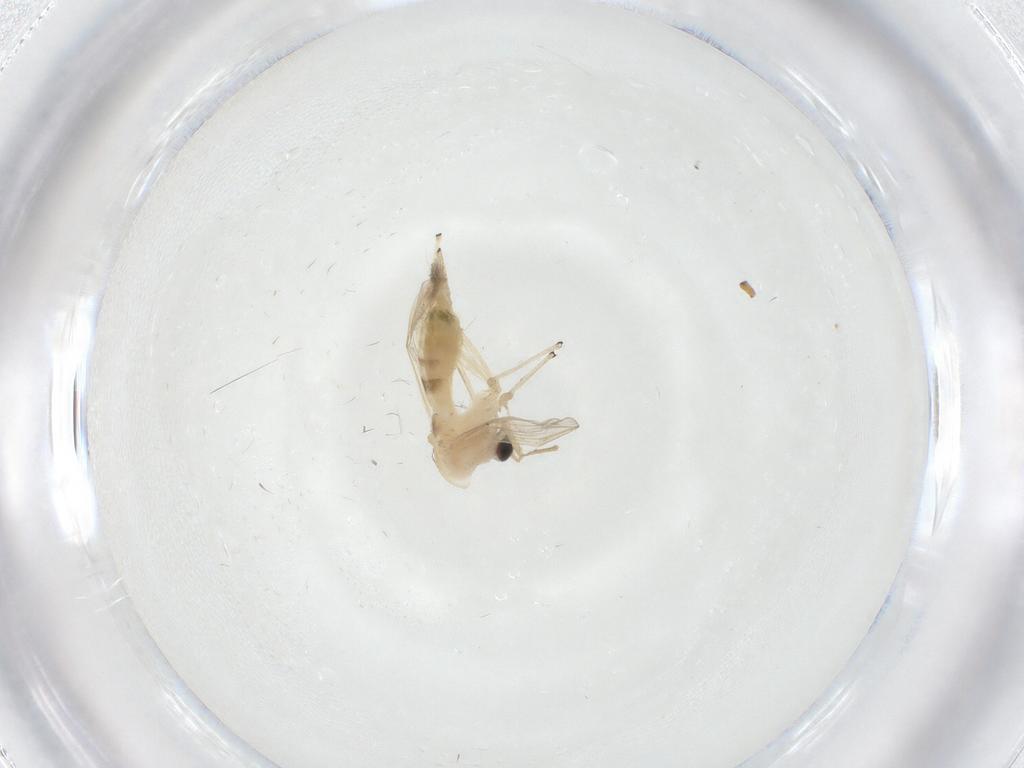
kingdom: Animalia
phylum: Arthropoda
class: Insecta
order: Diptera
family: Chironomidae
